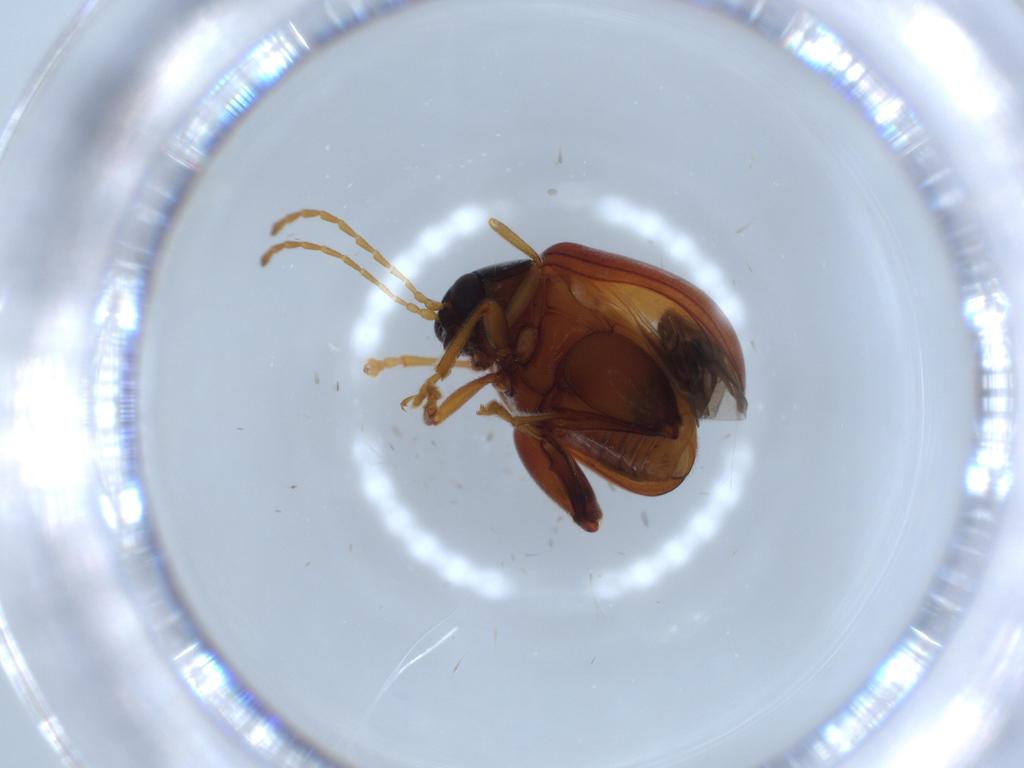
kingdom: Animalia
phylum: Arthropoda
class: Insecta
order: Coleoptera
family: Chrysomelidae
